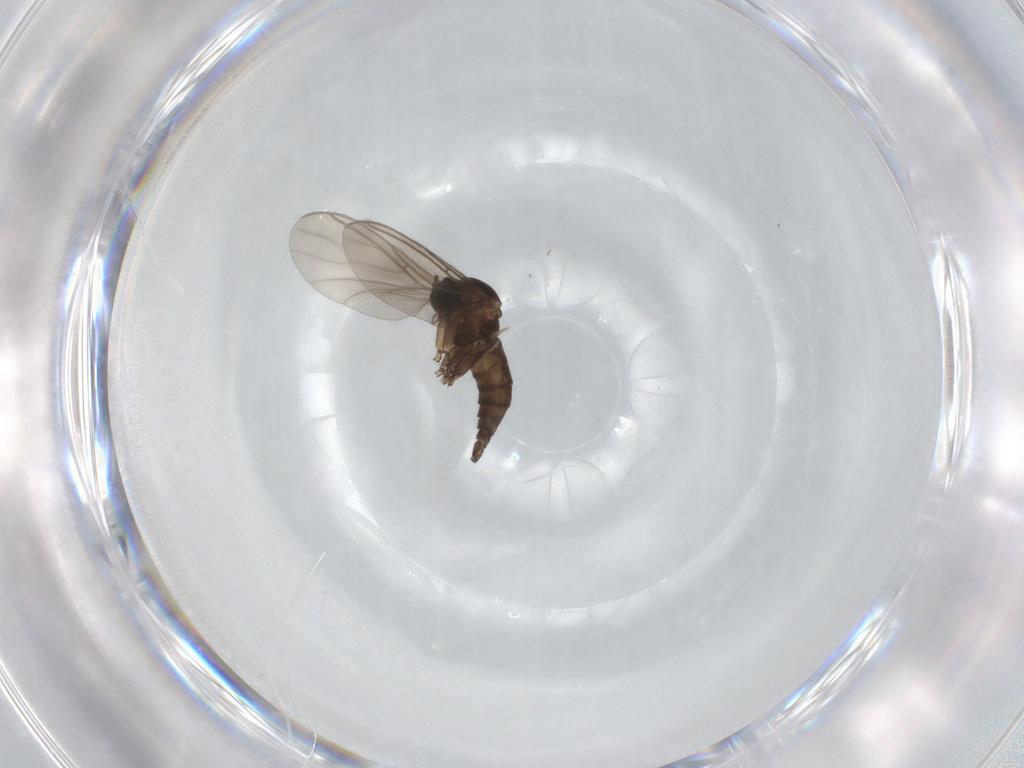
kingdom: Animalia
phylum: Arthropoda
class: Insecta
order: Diptera
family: Sciaridae
